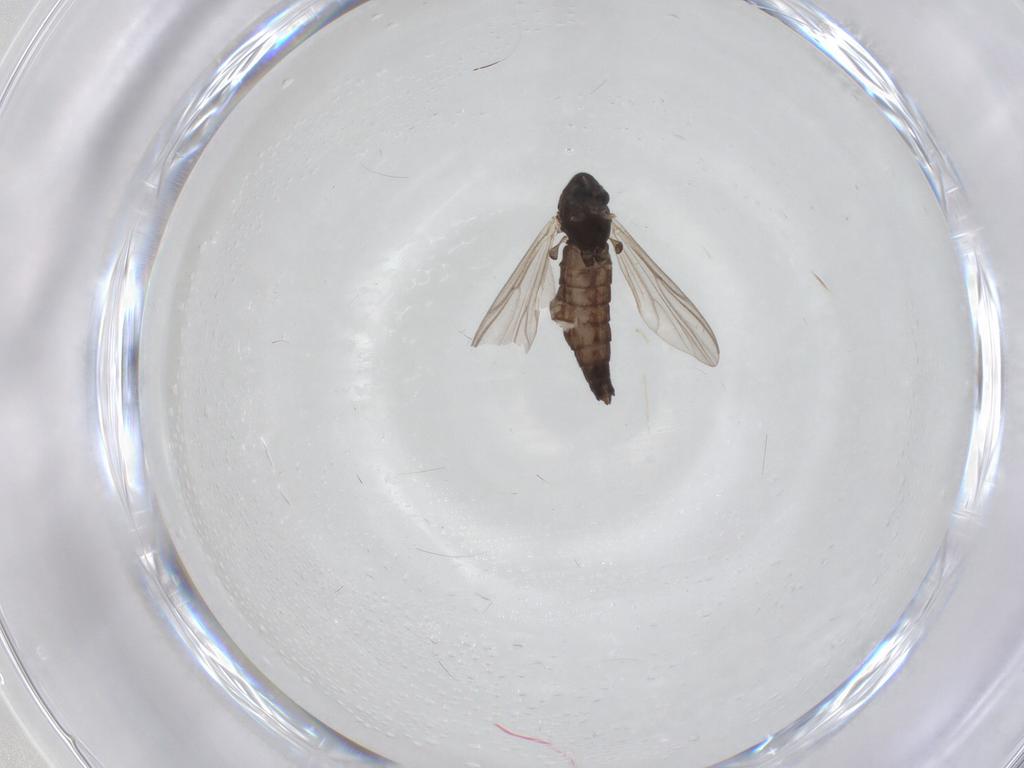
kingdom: Animalia
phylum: Arthropoda
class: Insecta
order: Diptera
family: Chironomidae
